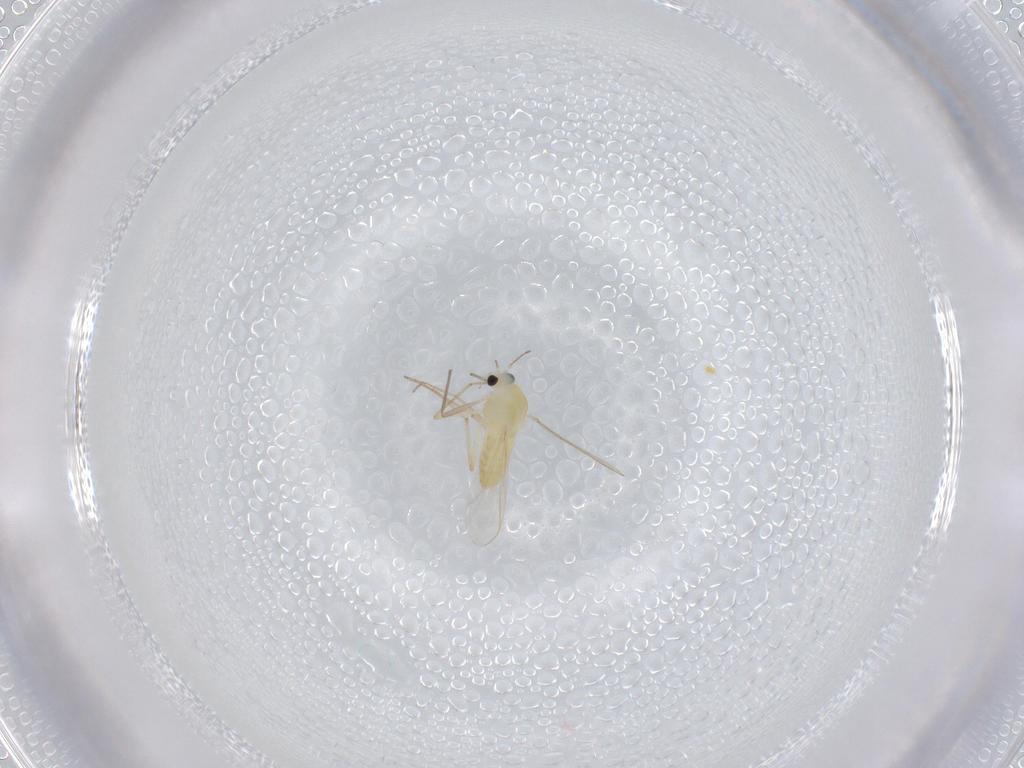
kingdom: Animalia
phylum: Arthropoda
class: Insecta
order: Diptera
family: Chironomidae
